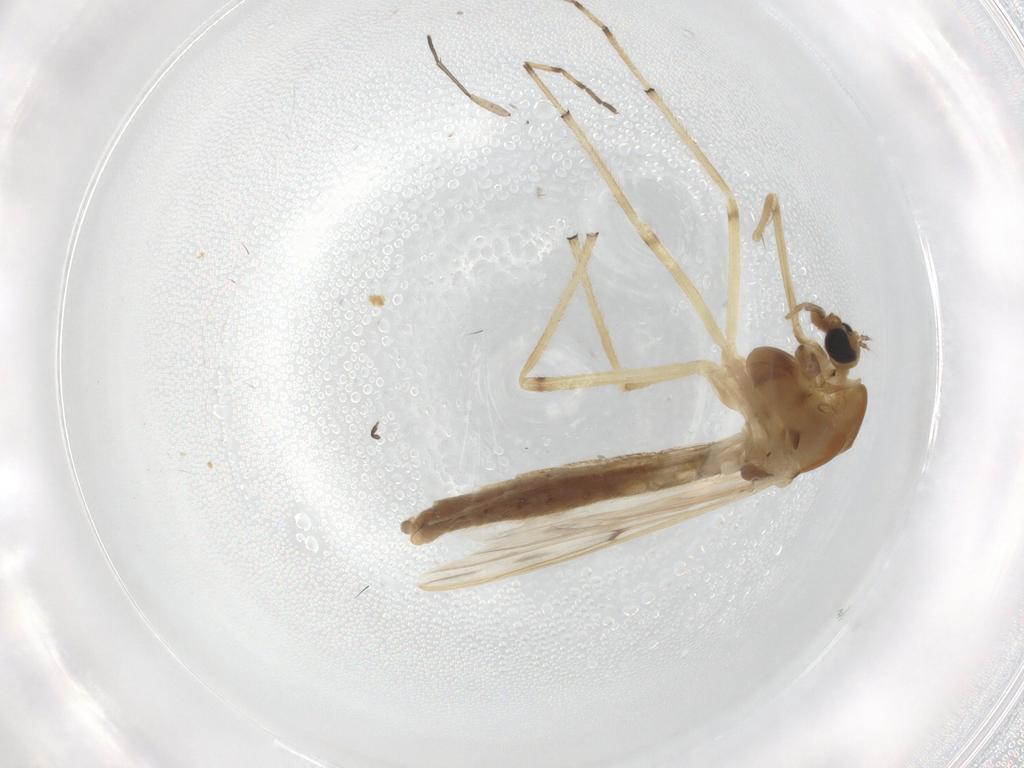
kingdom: Animalia
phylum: Arthropoda
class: Insecta
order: Diptera
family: Chironomidae
